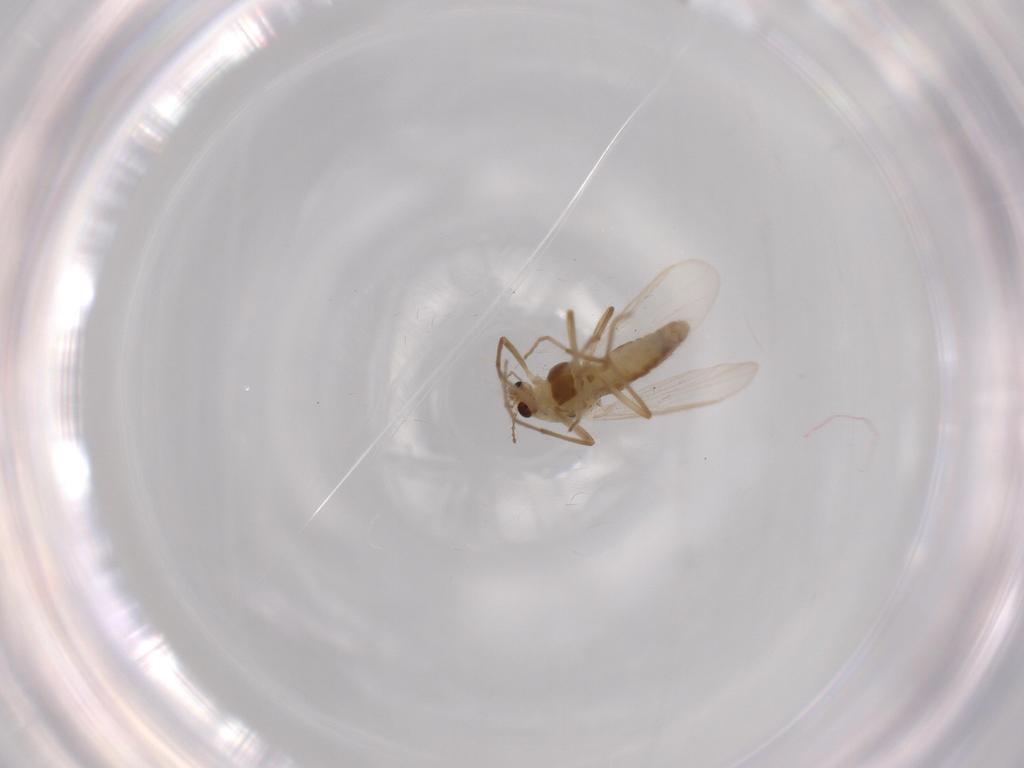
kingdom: Animalia
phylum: Arthropoda
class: Insecta
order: Diptera
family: Chironomidae
